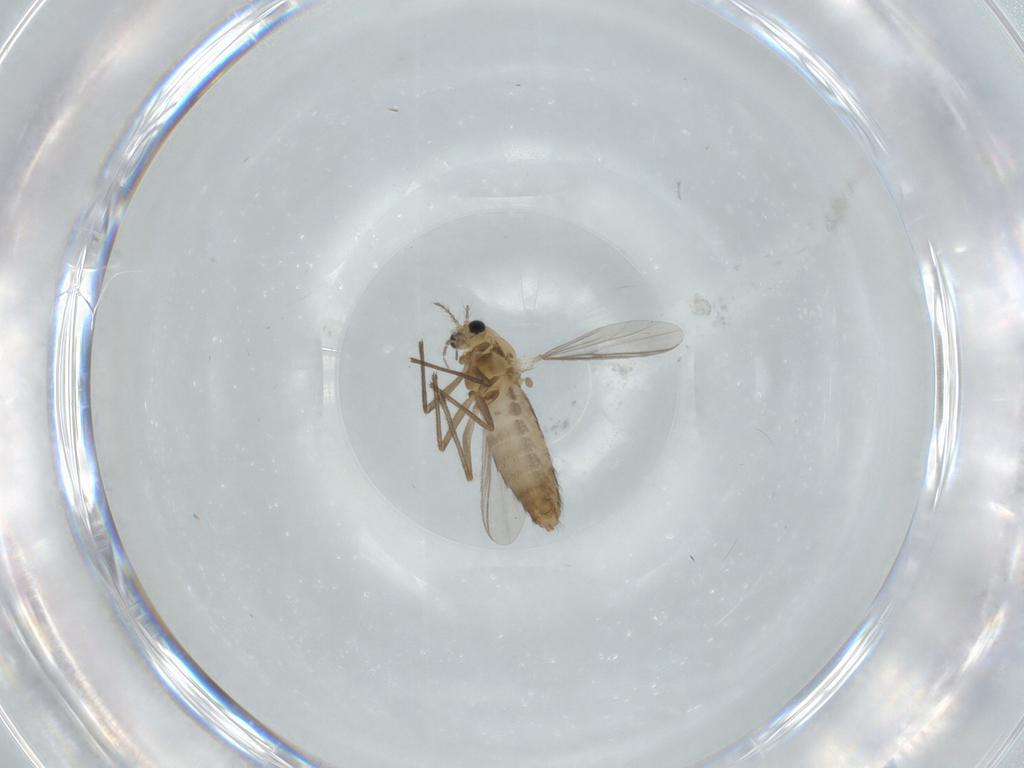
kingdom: Animalia
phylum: Arthropoda
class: Insecta
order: Diptera
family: Chironomidae
